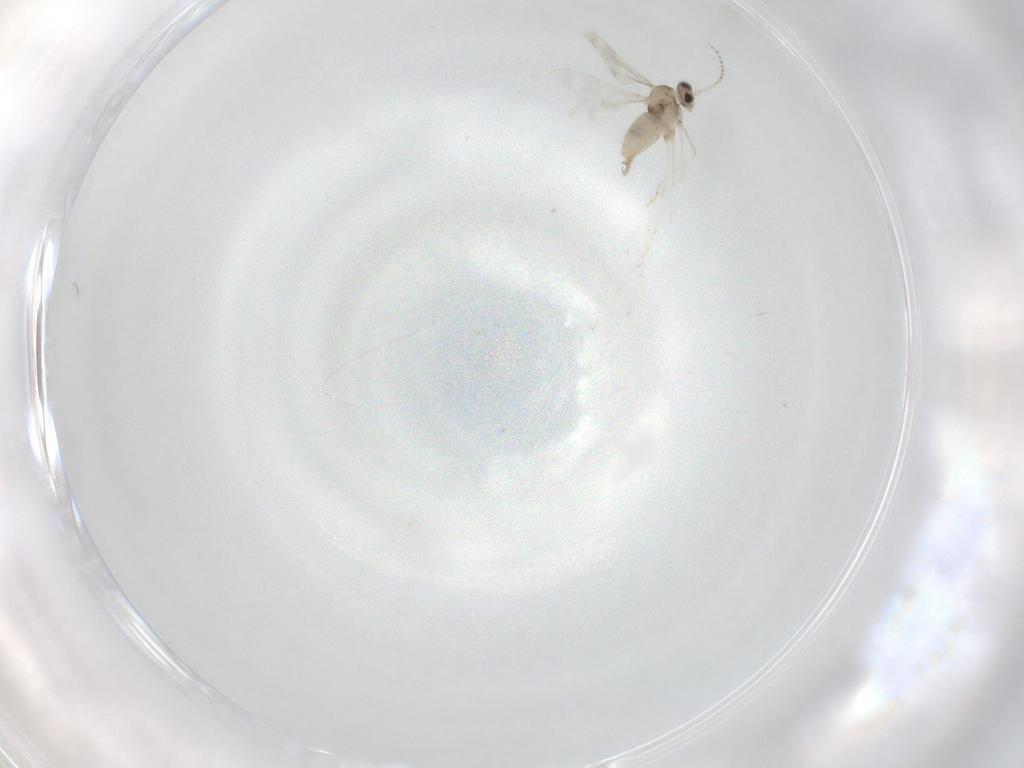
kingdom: Animalia
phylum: Arthropoda
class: Insecta
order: Diptera
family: Cecidomyiidae
